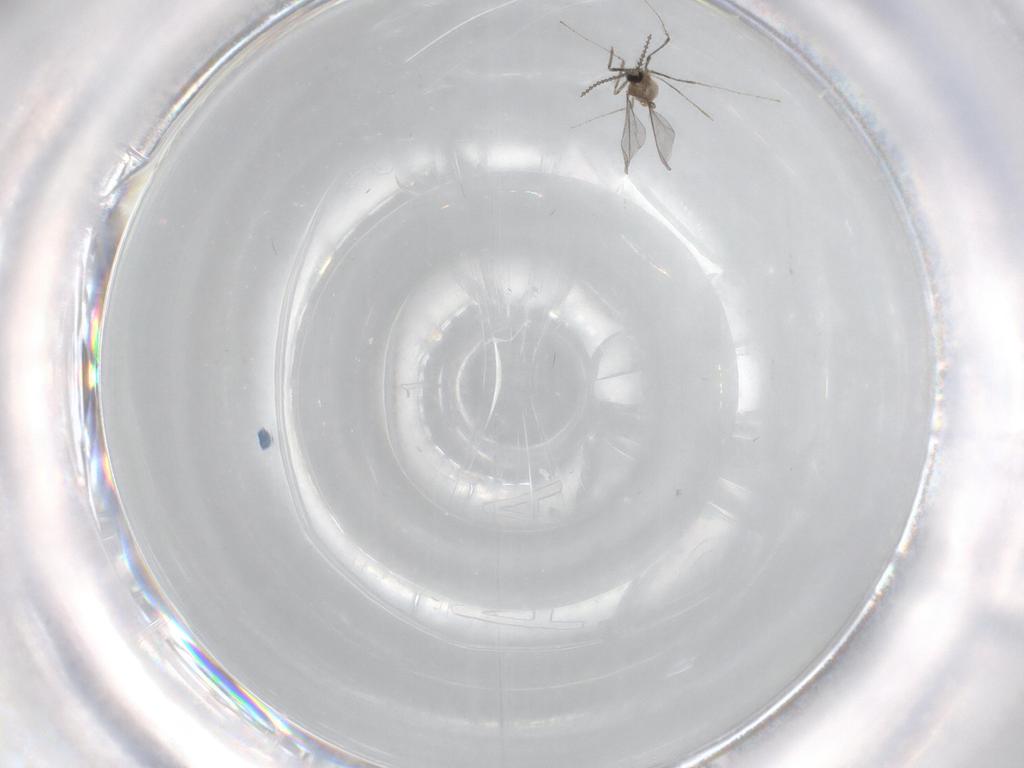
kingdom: Animalia
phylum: Arthropoda
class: Insecta
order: Diptera
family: Cecidomyiidae
